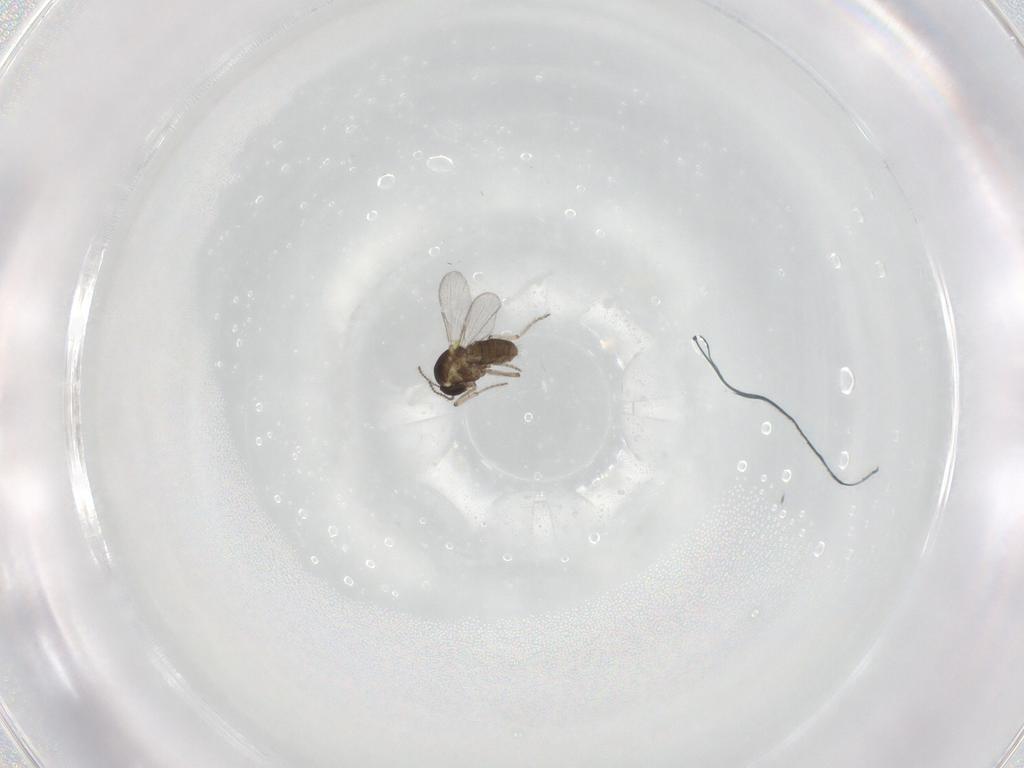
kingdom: Animalia
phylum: Arthropoda
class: Insecta
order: Diptera
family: Ceratopogonidae
